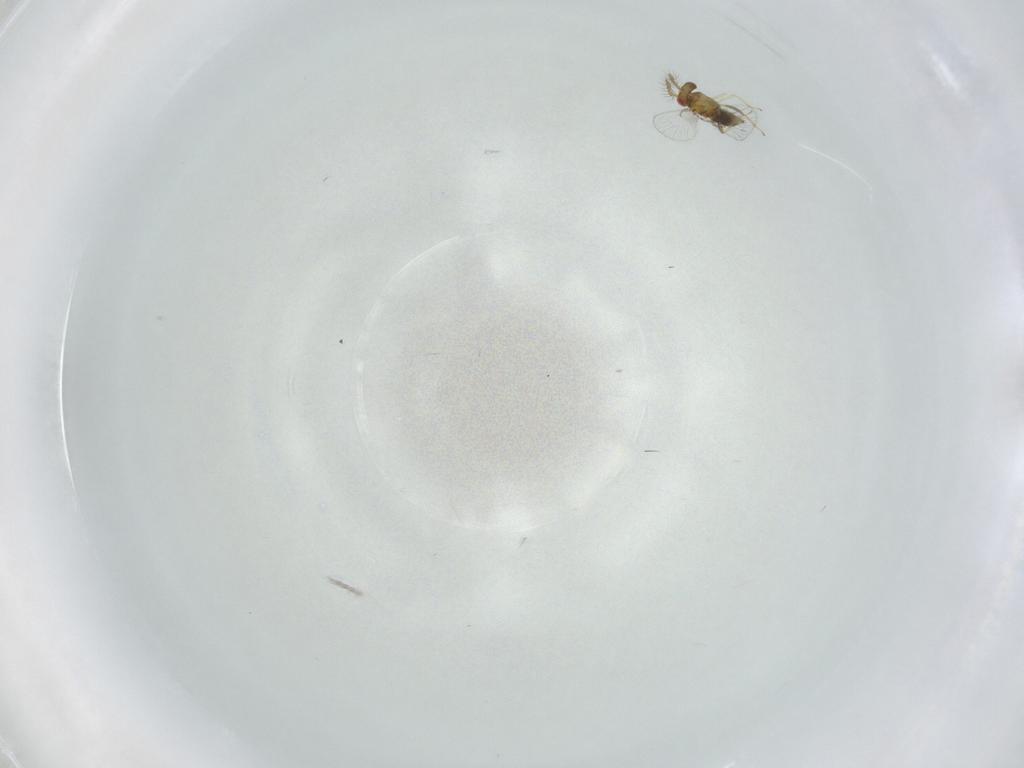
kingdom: Animalia
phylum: Arthropoda
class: Insecta
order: Hymenoptera
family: Trichogrammatidae
